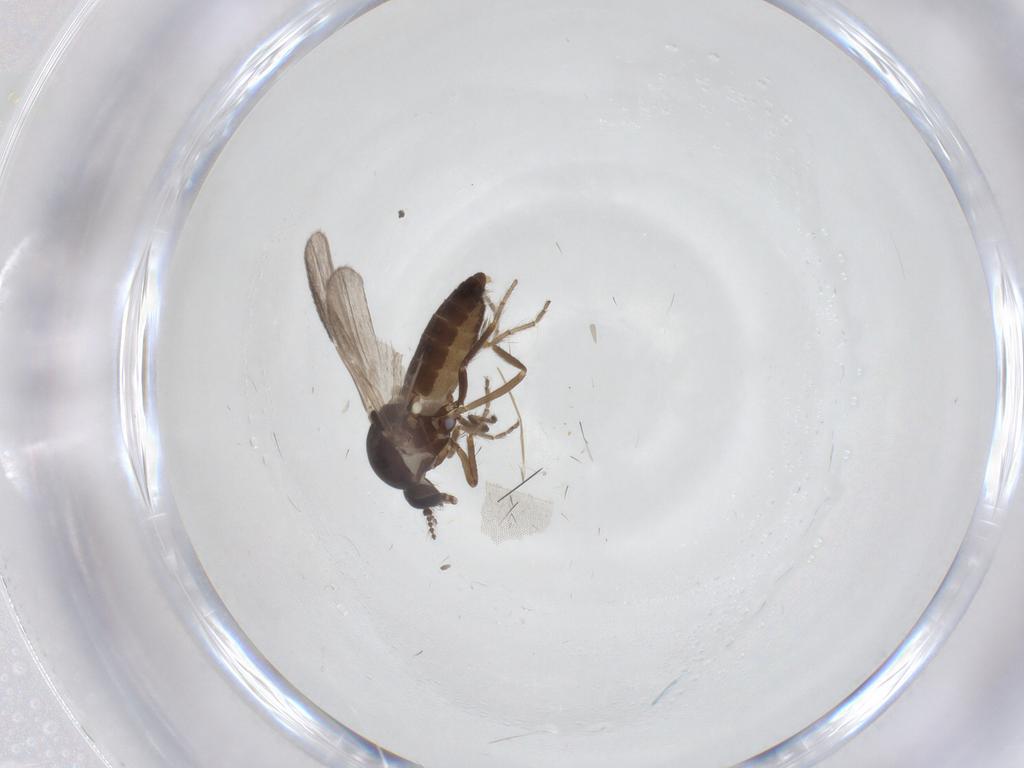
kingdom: Animalia
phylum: Arthropoda
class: Insecta
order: Diptera
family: Ceratopogonidae
